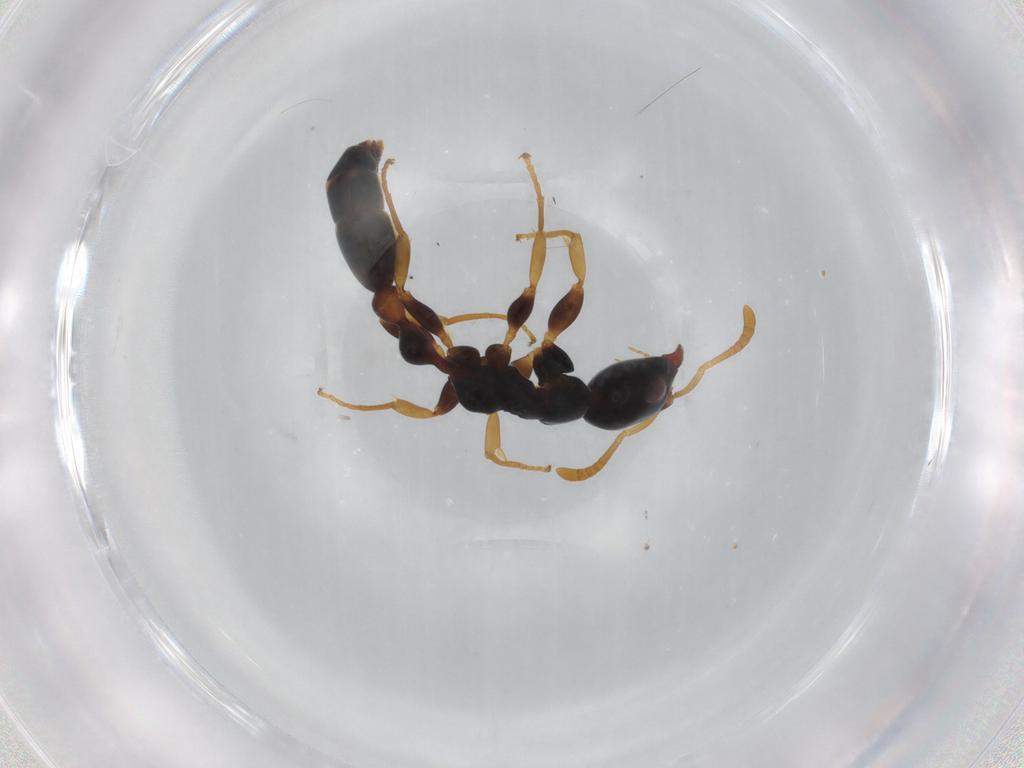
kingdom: Animalia
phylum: Arthropoda
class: Insecta
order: Hymenoptera
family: Formicidae
